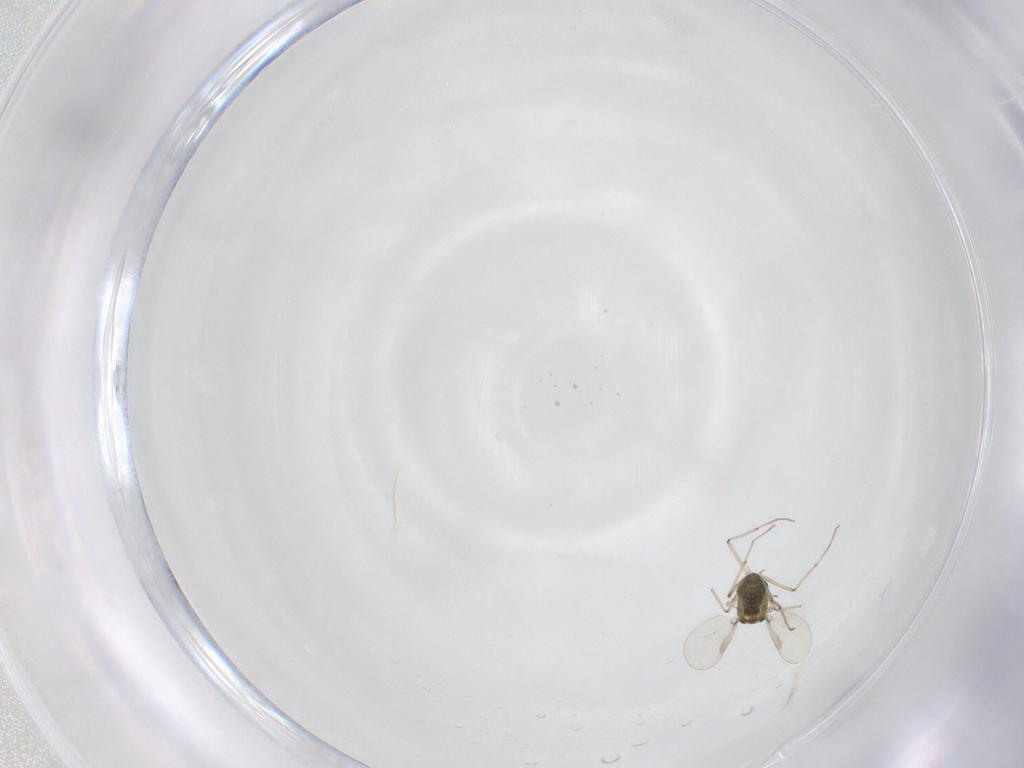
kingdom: Animalia
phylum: Arthropoda
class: Insecta
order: Diptera
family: Chironomidae
